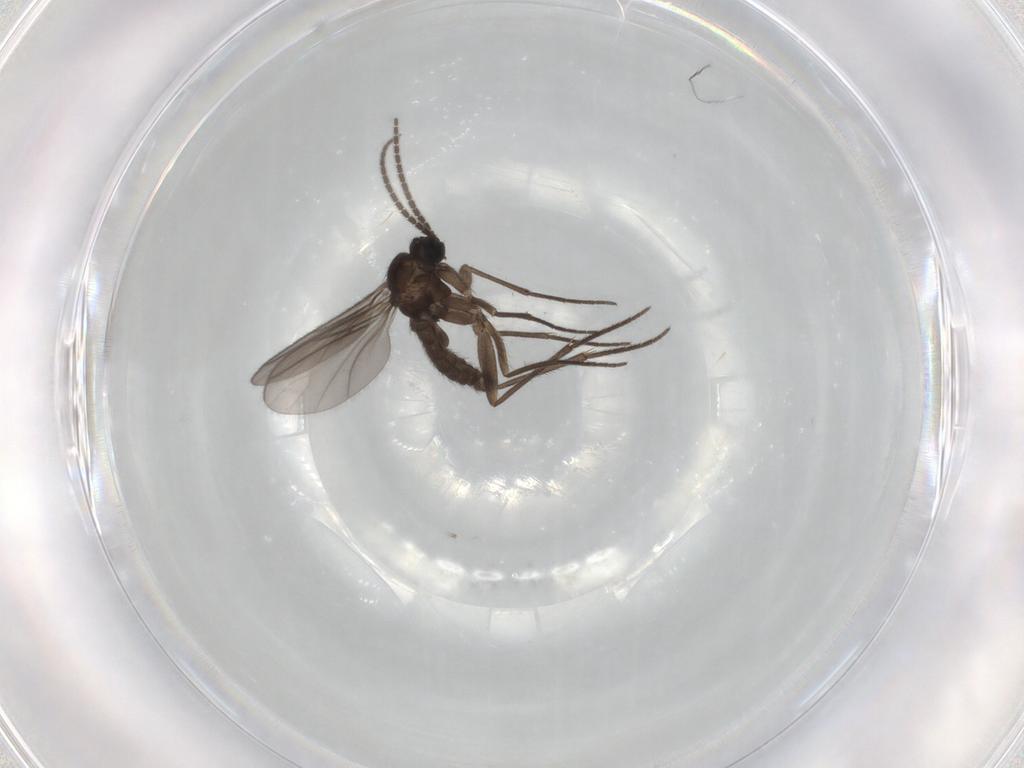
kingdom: Animalia
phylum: Arthropoda
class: Insecta
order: Diptera
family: Sciaridae
